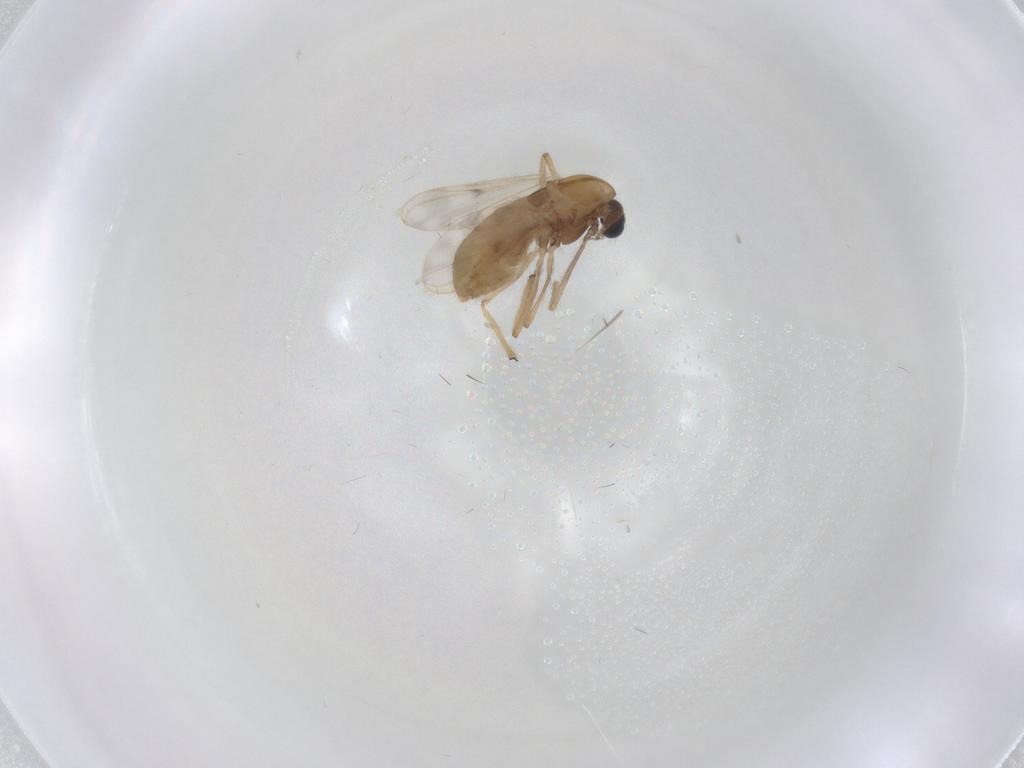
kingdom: Animalia
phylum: Arthropoda
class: Insecta
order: Diptera
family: Chironomidae
